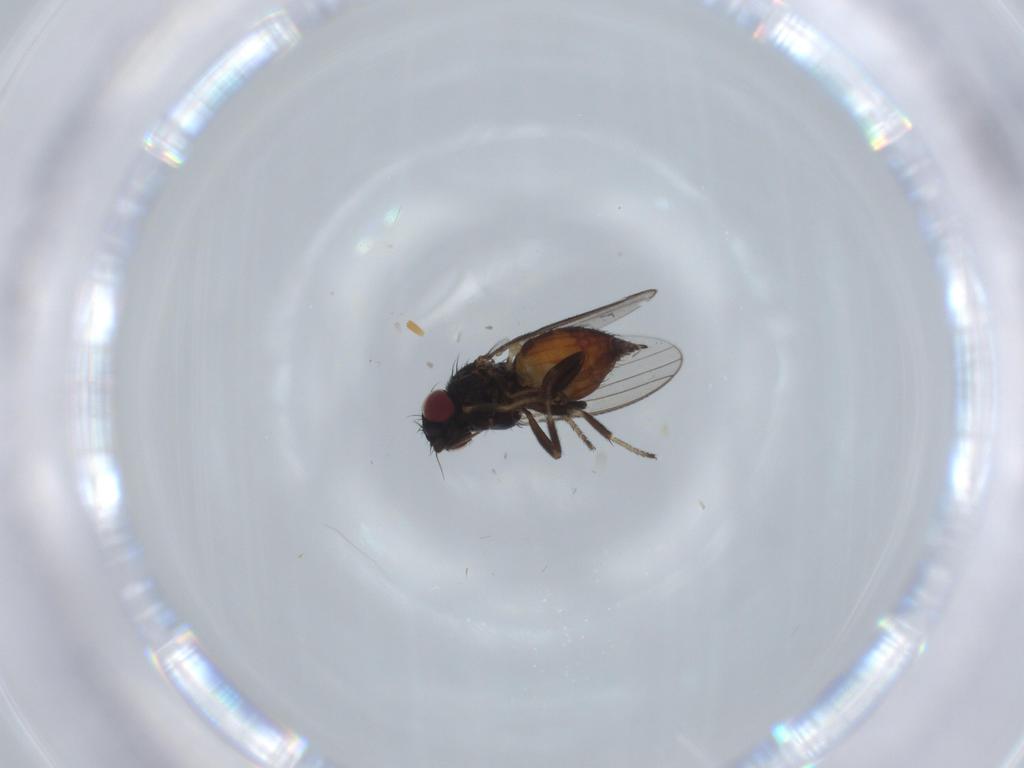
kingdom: Animalia
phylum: Arthropoda
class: Insecta
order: Diptera
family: Milichiidae
